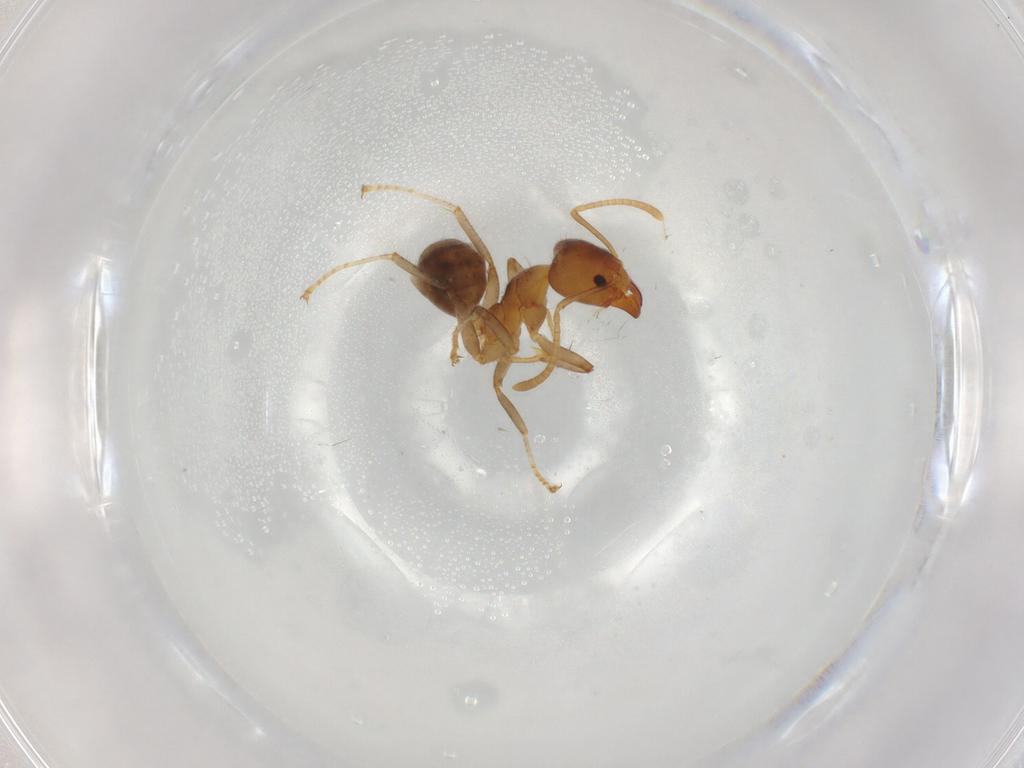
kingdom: Animalia
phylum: Arthropoda
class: Insecta
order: Hymenoptera
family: Formicidae
